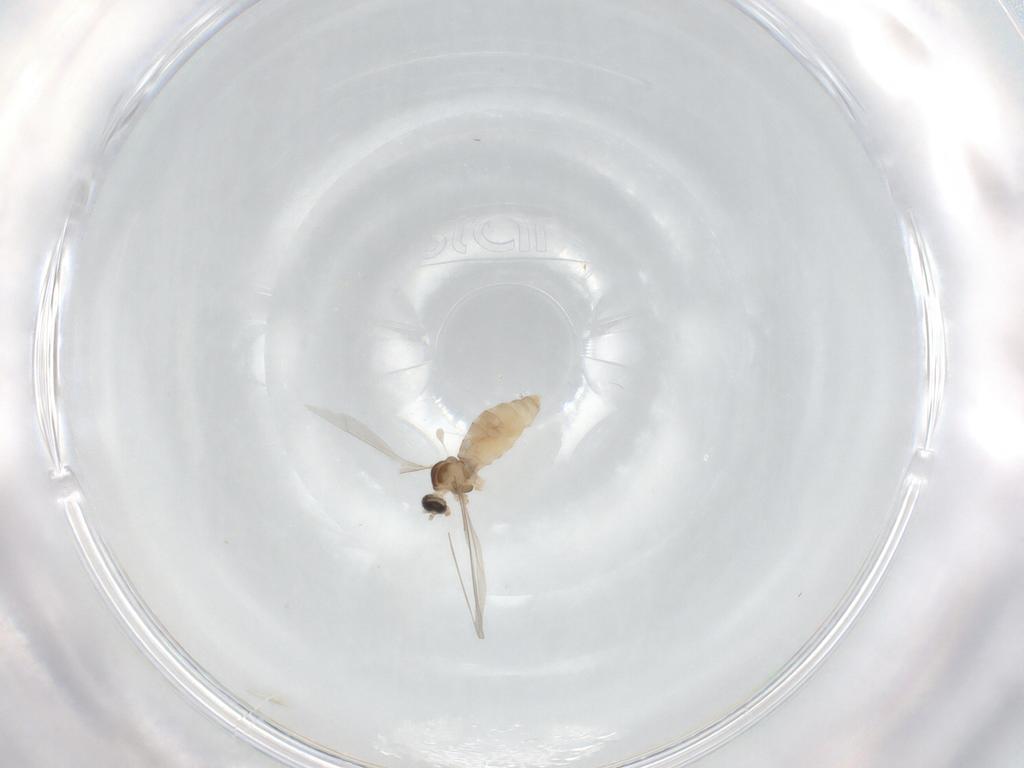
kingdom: Animalia
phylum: Arthropoda
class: Insecta
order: Diptera
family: Cecidomyiidae
